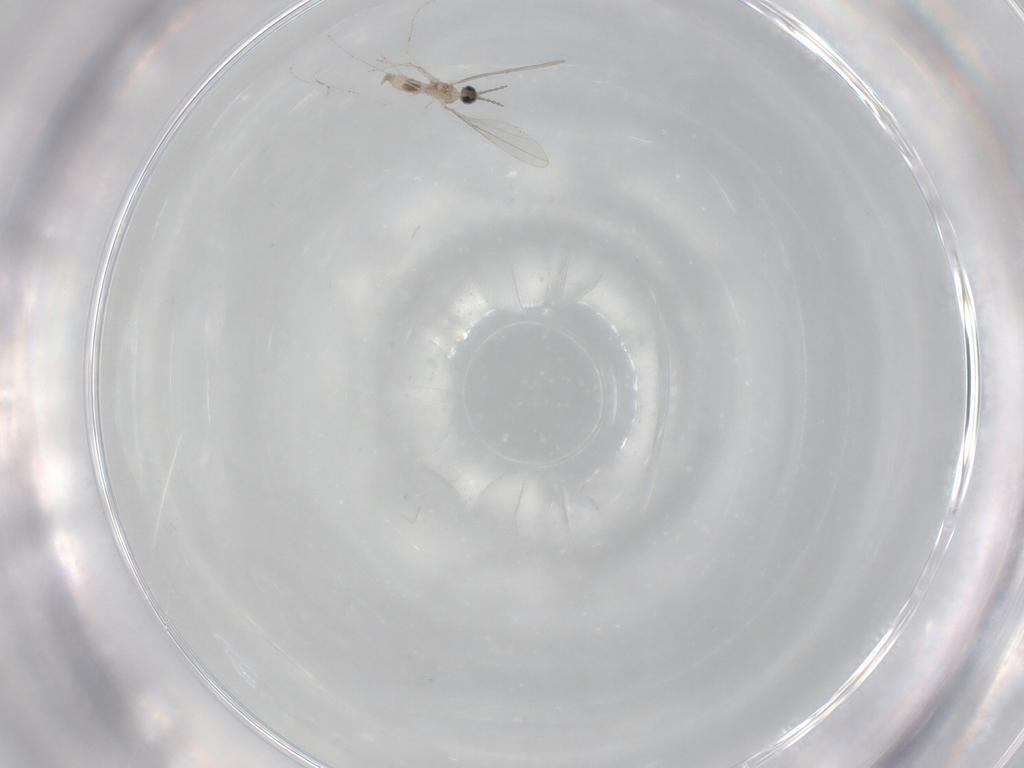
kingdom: Animalia
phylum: Arthropoda
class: Insecta
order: Diptera
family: Cecidomyiidae
